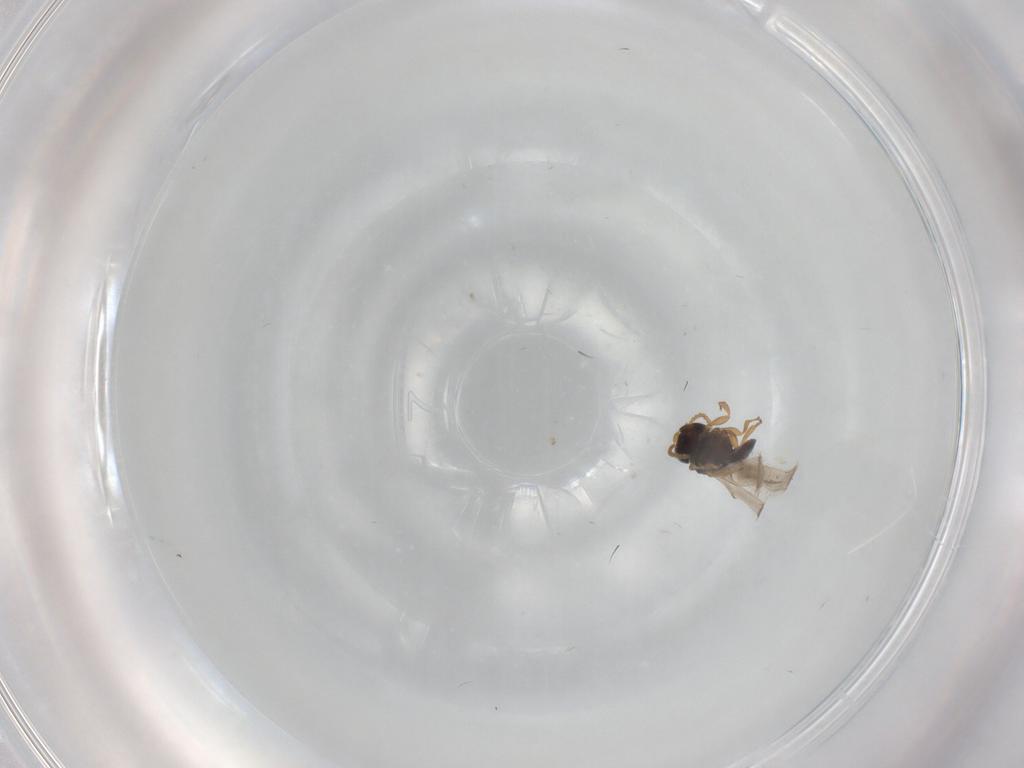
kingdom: Animalia
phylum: Arthropoda
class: Insecta
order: Hymenoptera
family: Scelionidae
